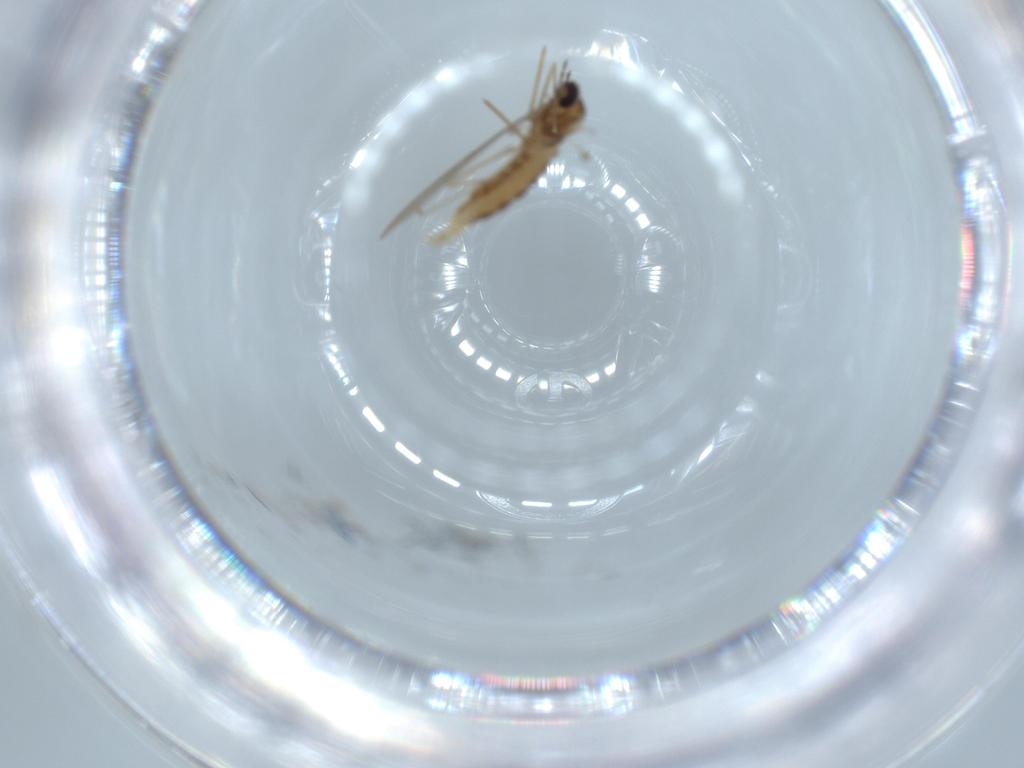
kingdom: Animalia
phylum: Arthropoda
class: Insecta
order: Diptera
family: Cecidomyiidae
